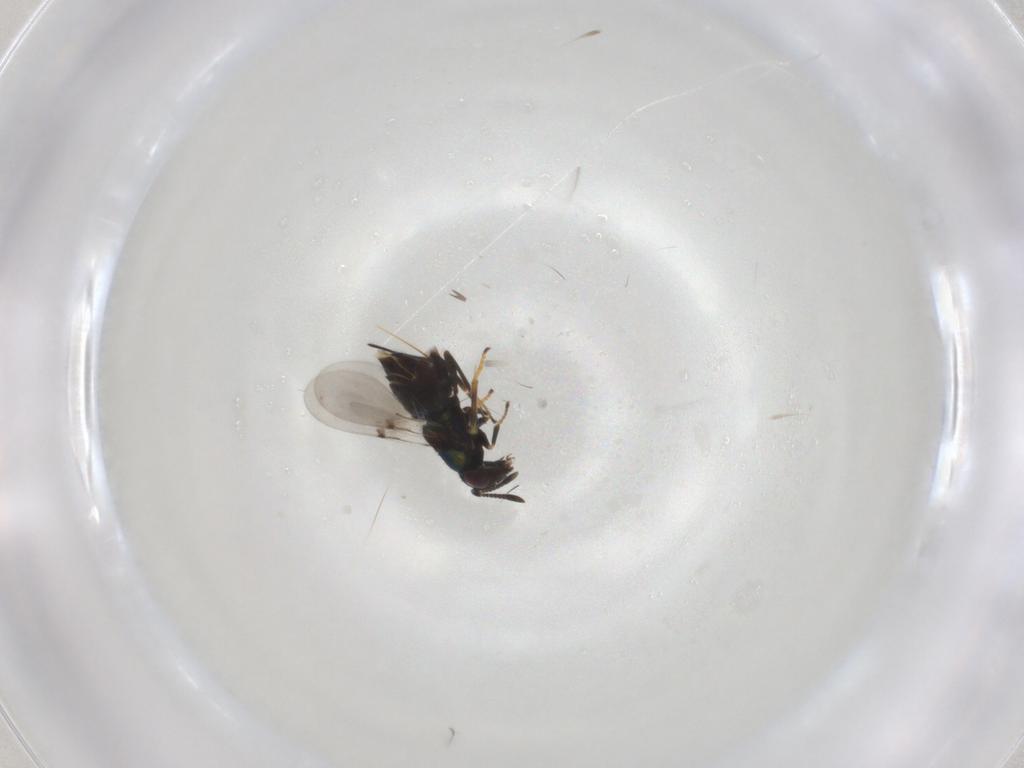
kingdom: Animalia
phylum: Arthropoda
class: Insecta
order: Hymenoptera
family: Encyrtidae
